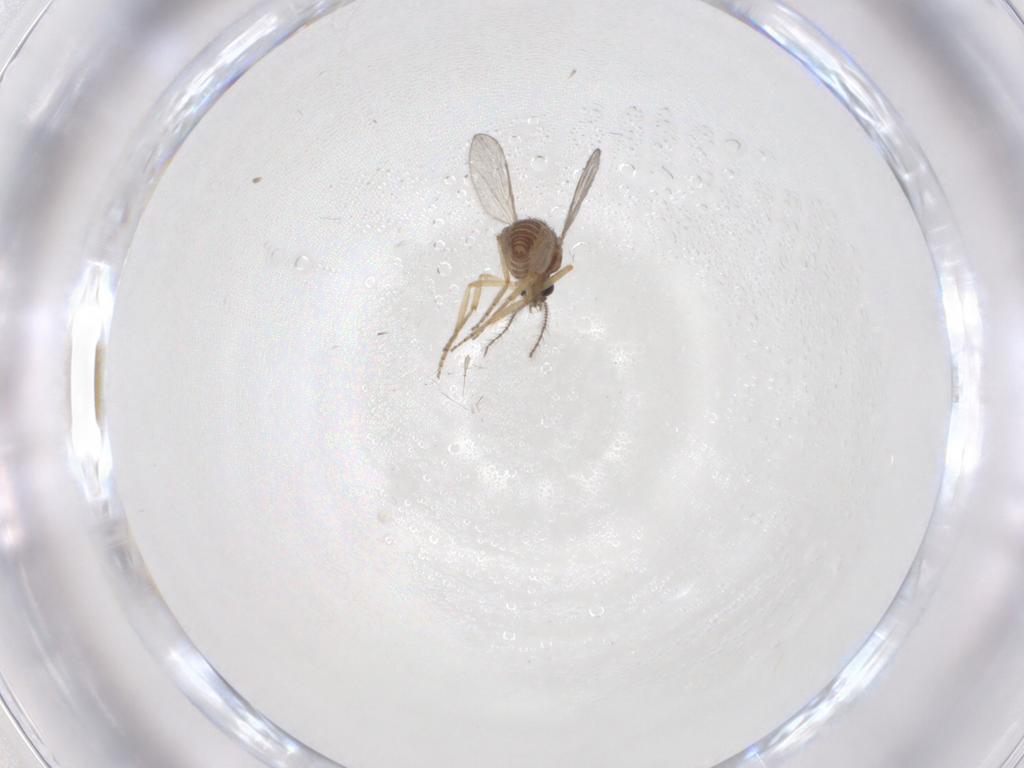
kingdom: Animalia
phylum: Arthropoda
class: Insecta
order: Diptera
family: Ceratopogonidae
